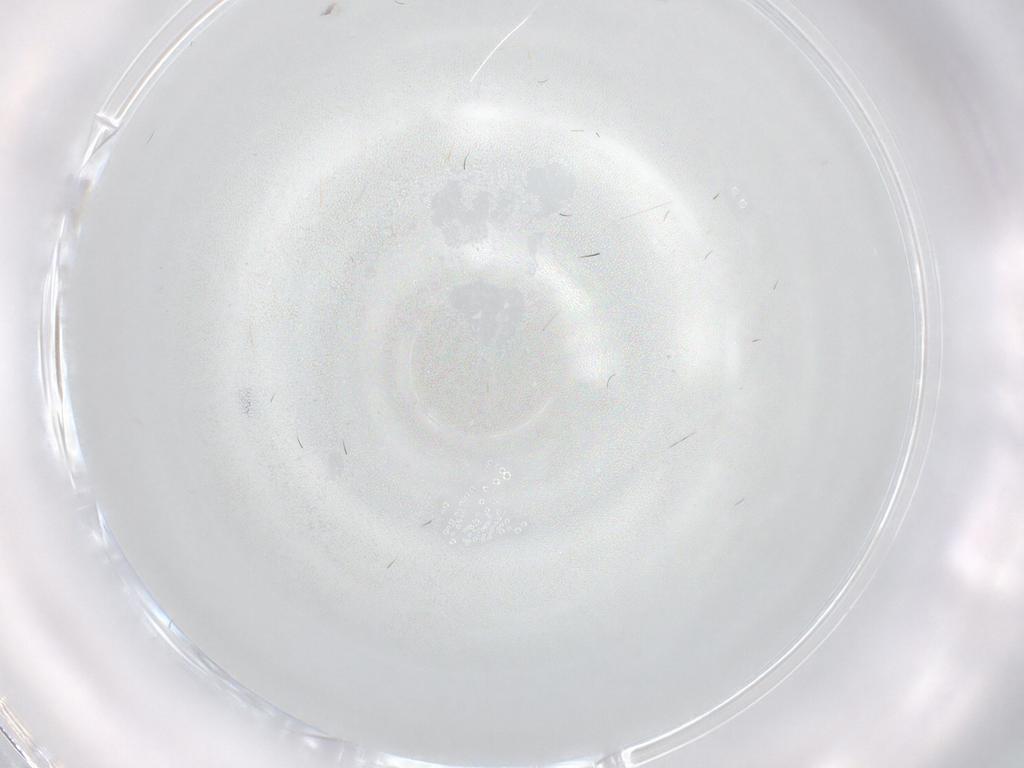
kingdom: Animalia
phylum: Arthropoda
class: Insecta
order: Hymenoptera
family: Ceraphronidae
